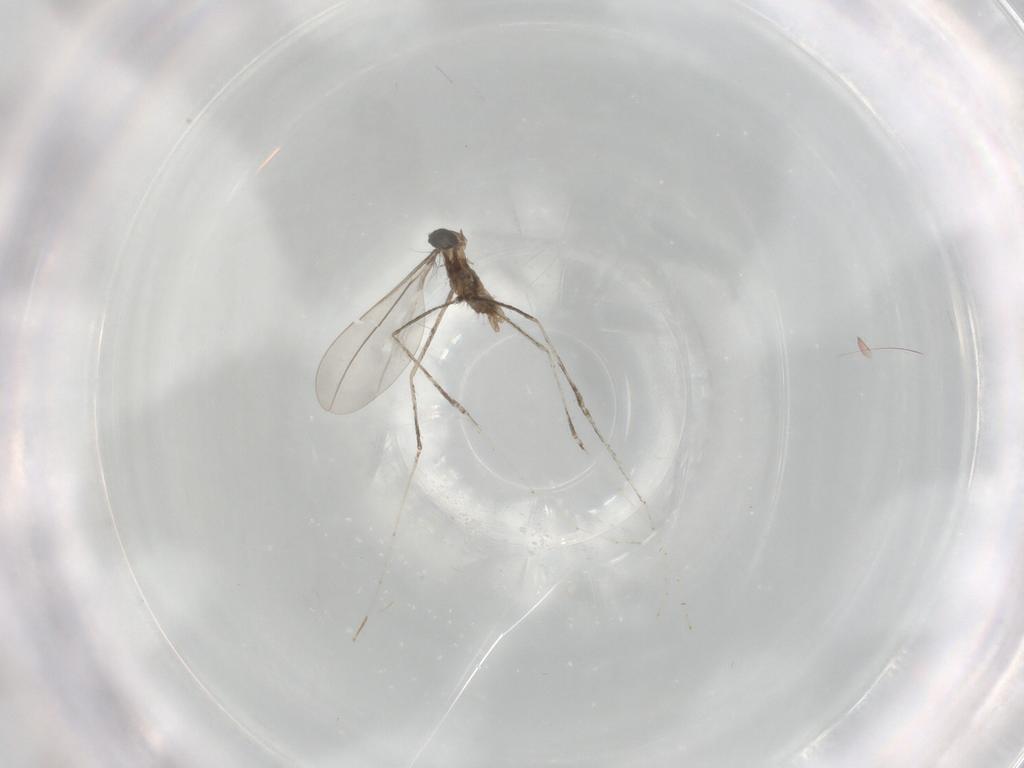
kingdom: Animalia
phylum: Arthropoda
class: Insecta
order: Diptera
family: Cecidomyiidae
